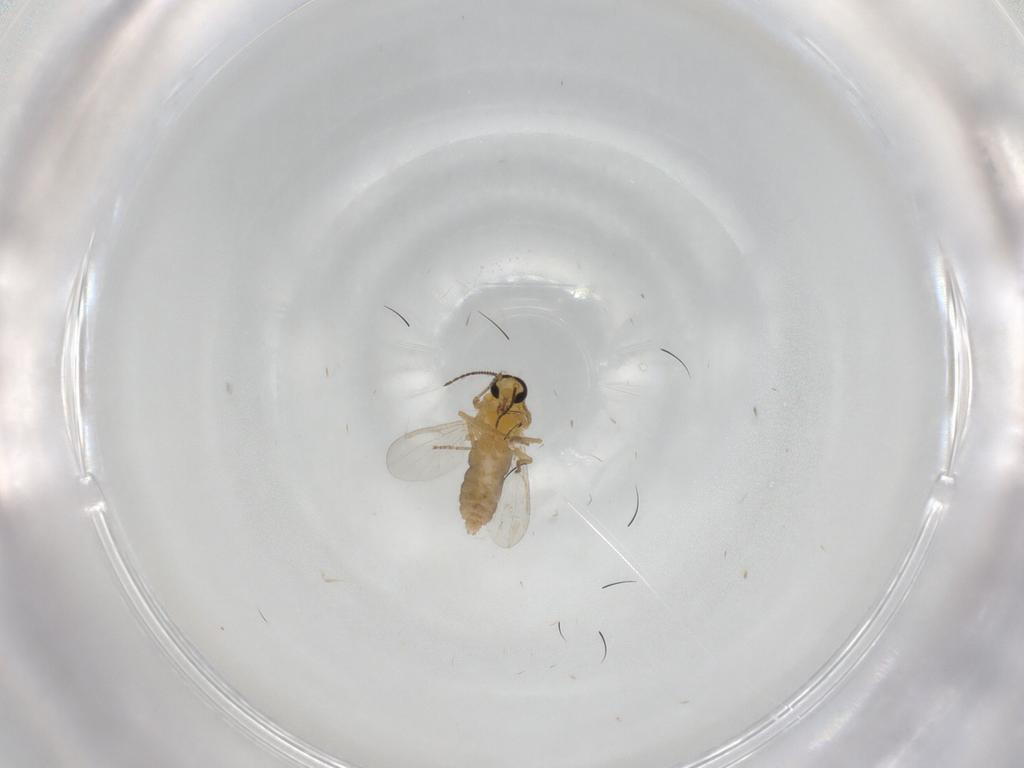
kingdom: Animalia
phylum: Arthropoda
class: Insecta
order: Diptera
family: Ceratopogonidae
